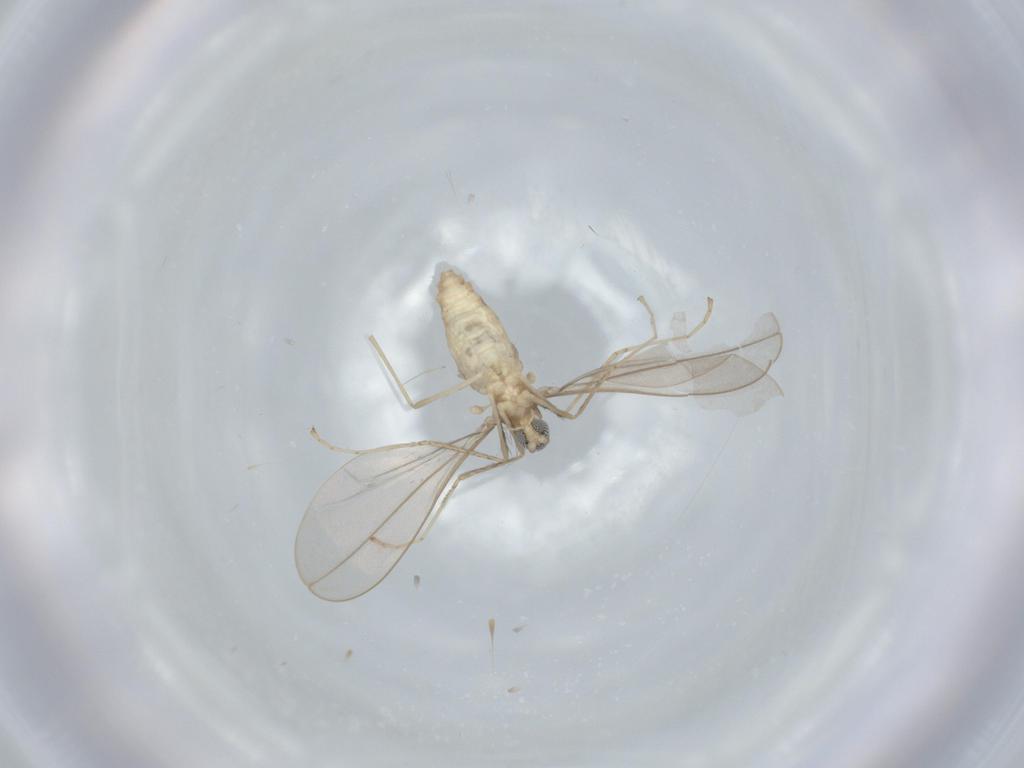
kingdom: Animalia
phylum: Arthropoda
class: Insecta
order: Diptera
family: Cecidomyiidae
